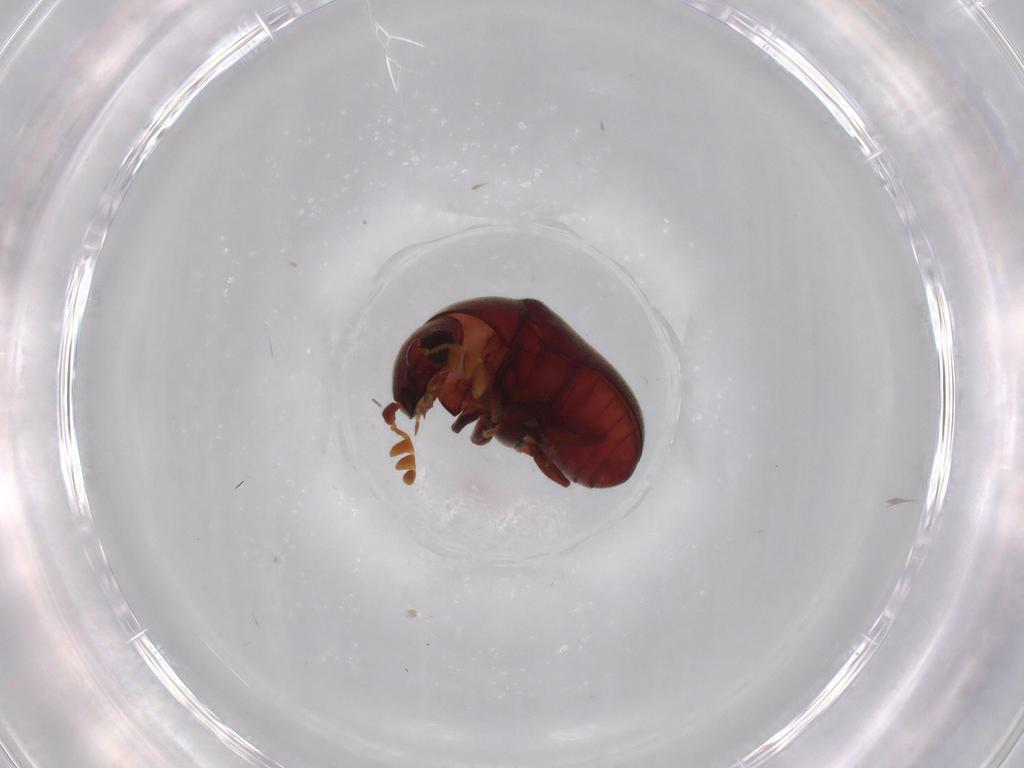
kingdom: Animalia
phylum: Arthropoda
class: Insecta
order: Coleoptera
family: Ptinidae
